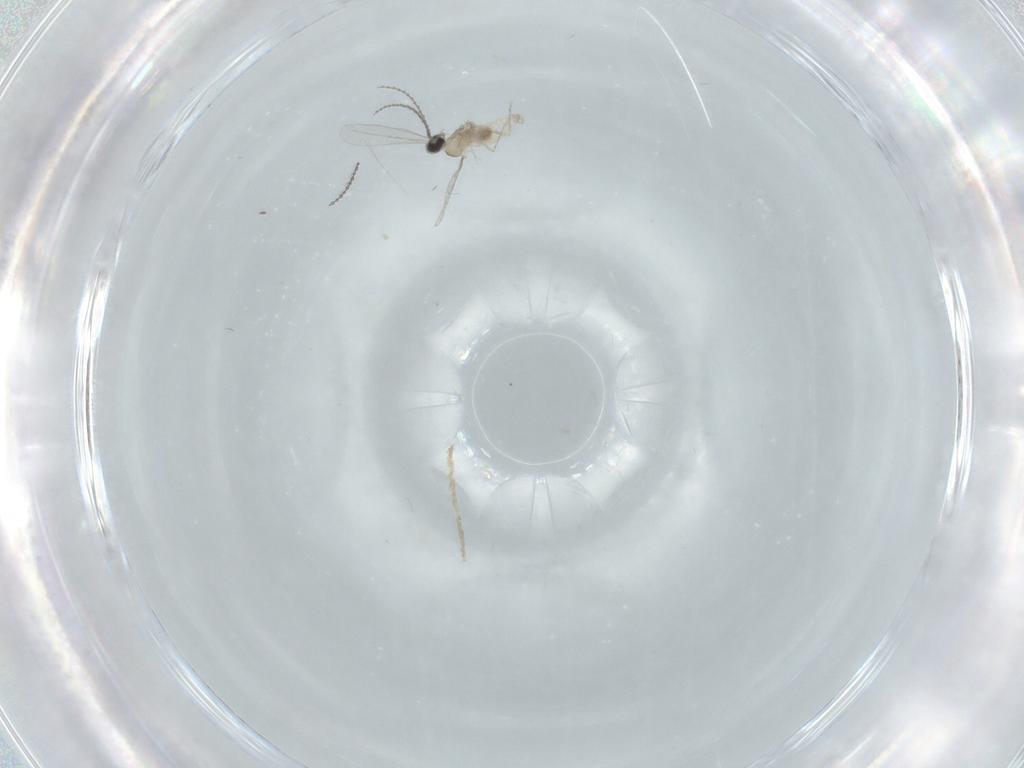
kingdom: Animalia
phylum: Arthropoda
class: Insecta
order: Diptera
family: Cecidomyiidae
